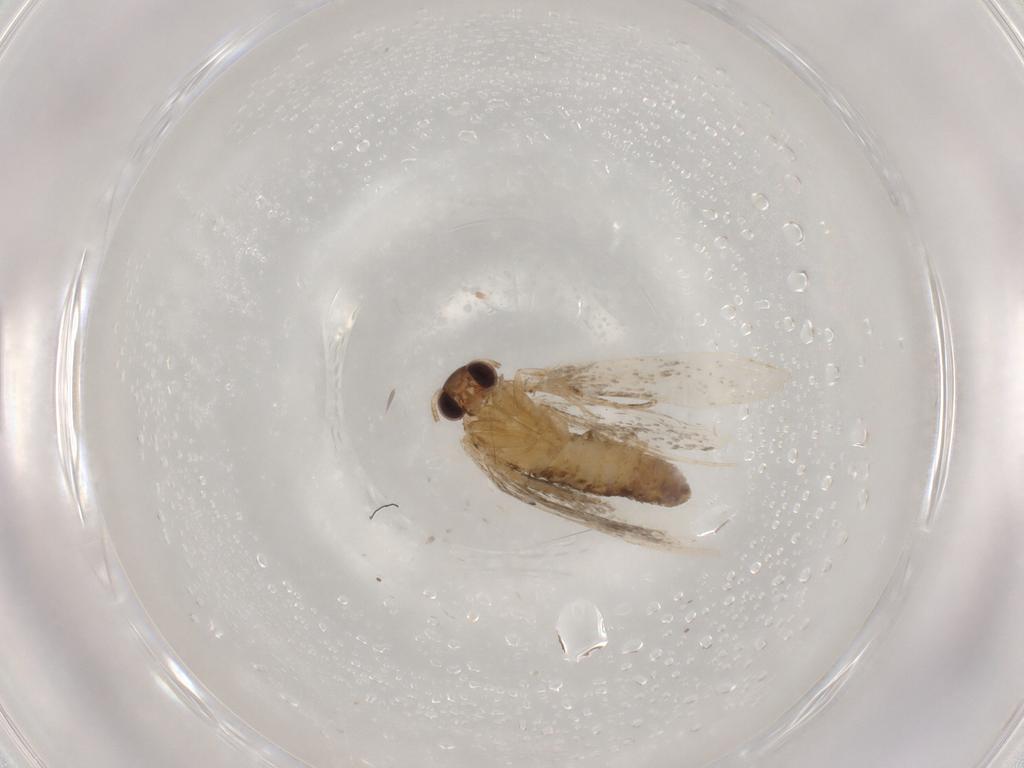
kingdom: Animalia
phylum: Arthropoda
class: Insecta
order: Lepidoptera
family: Tortricidae
